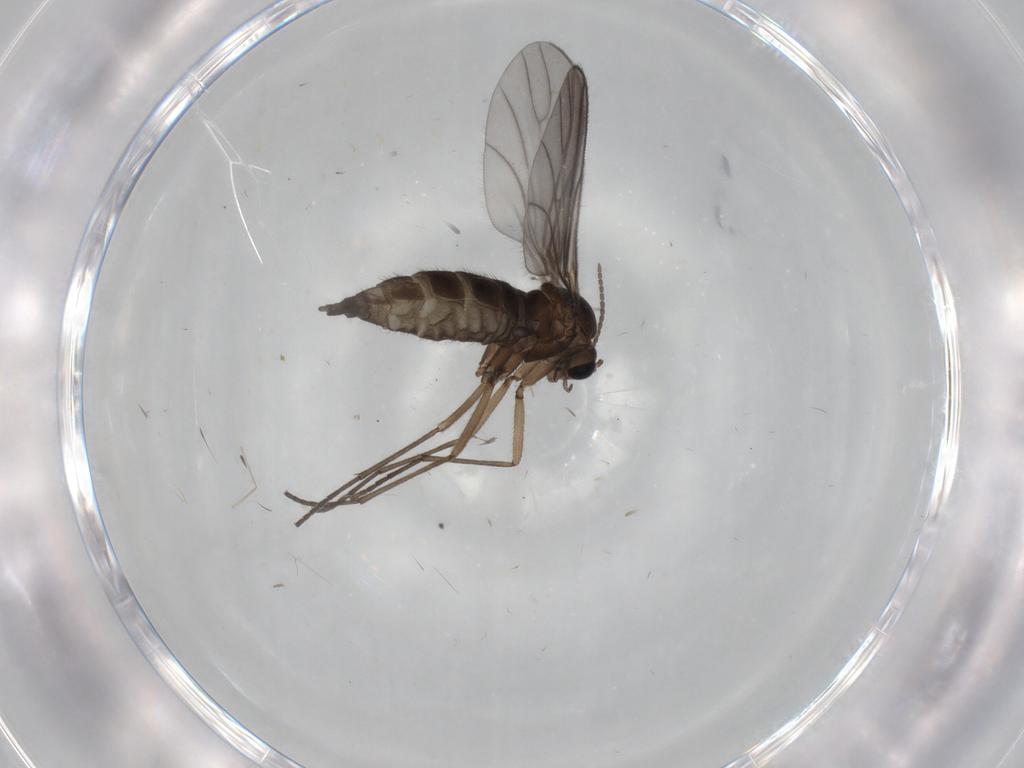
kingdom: Animalia
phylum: Arthropoda
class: Insecta
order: Diptera
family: Sciaridae
